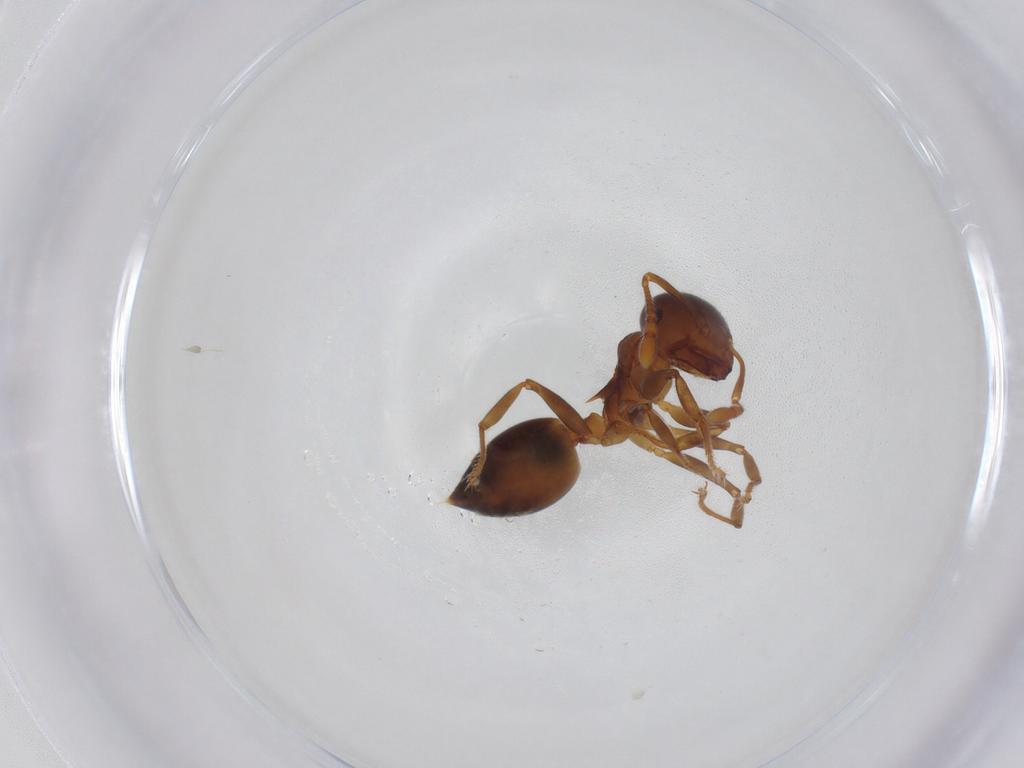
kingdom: Animalia
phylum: Arthropoda
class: Insecta
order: Hymenoptera
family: Formicidae
